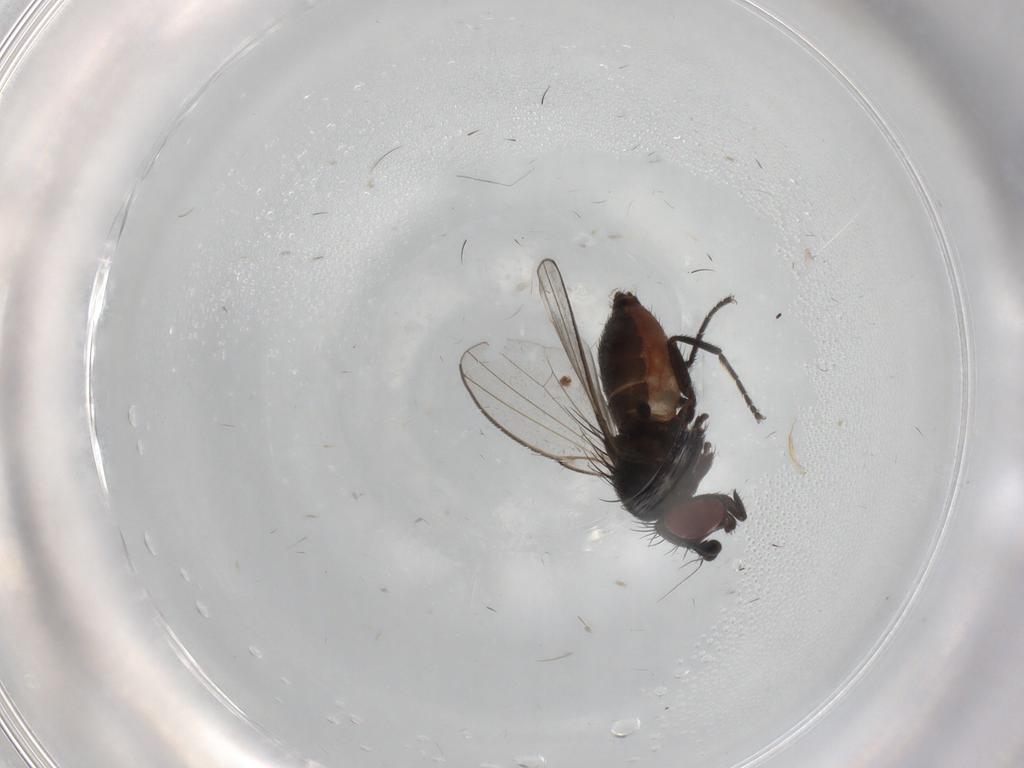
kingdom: Animalia
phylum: Arthropoda
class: Insecta
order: Diptera
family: Milichiidae
